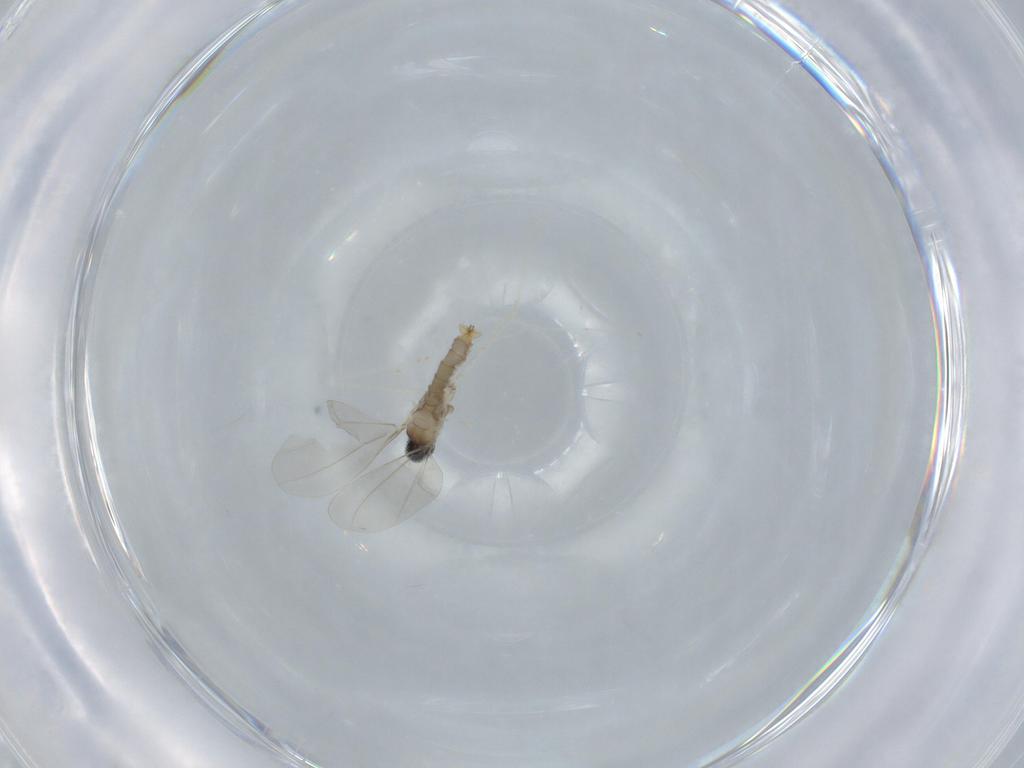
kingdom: Animalia
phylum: Arthropoda
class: Insecta
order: Diptera
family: Cecidomyiidae
